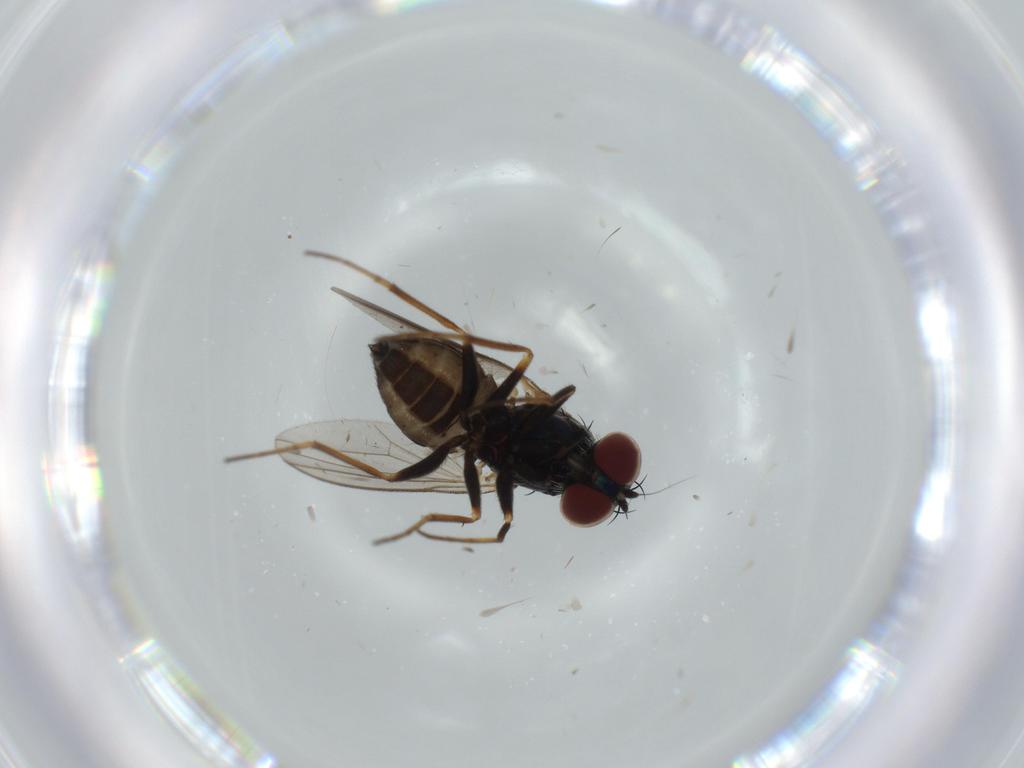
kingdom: Animalia
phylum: Arthropoda
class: Insecta
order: Diptera
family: Dolichopodidae
